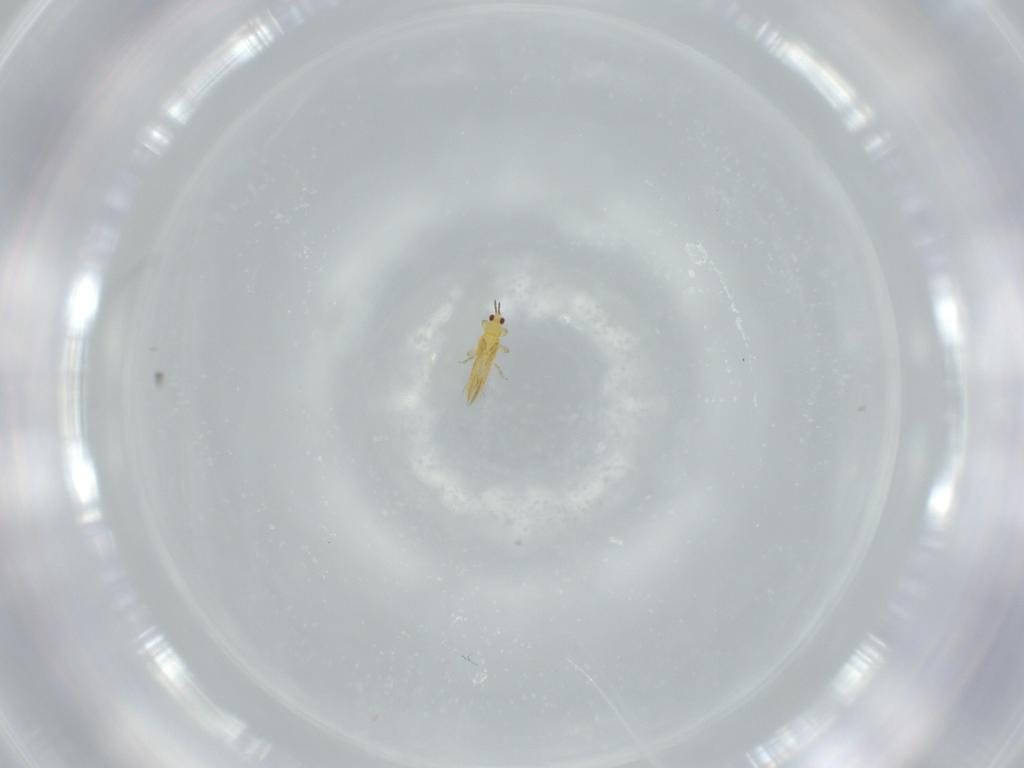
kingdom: Animalia
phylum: Arthropoda
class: Insecta
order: Thysanoptera
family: Thripidae
